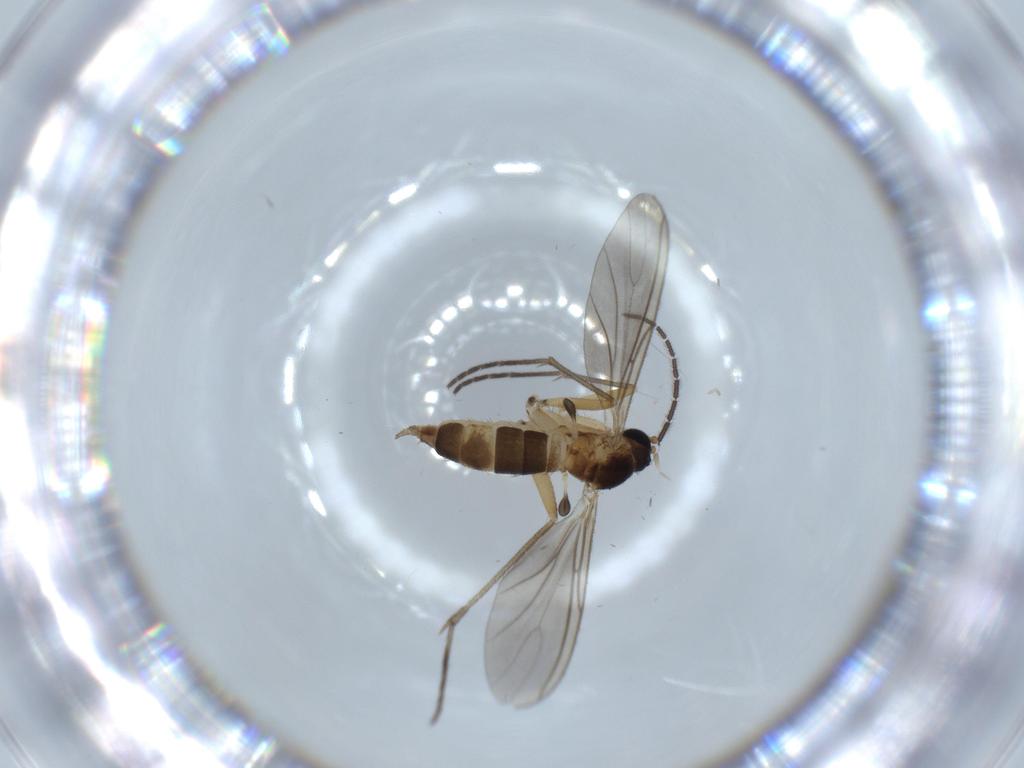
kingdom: Animalia
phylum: Arthropoda
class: Insecta
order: Diptera
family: Sciaridae
